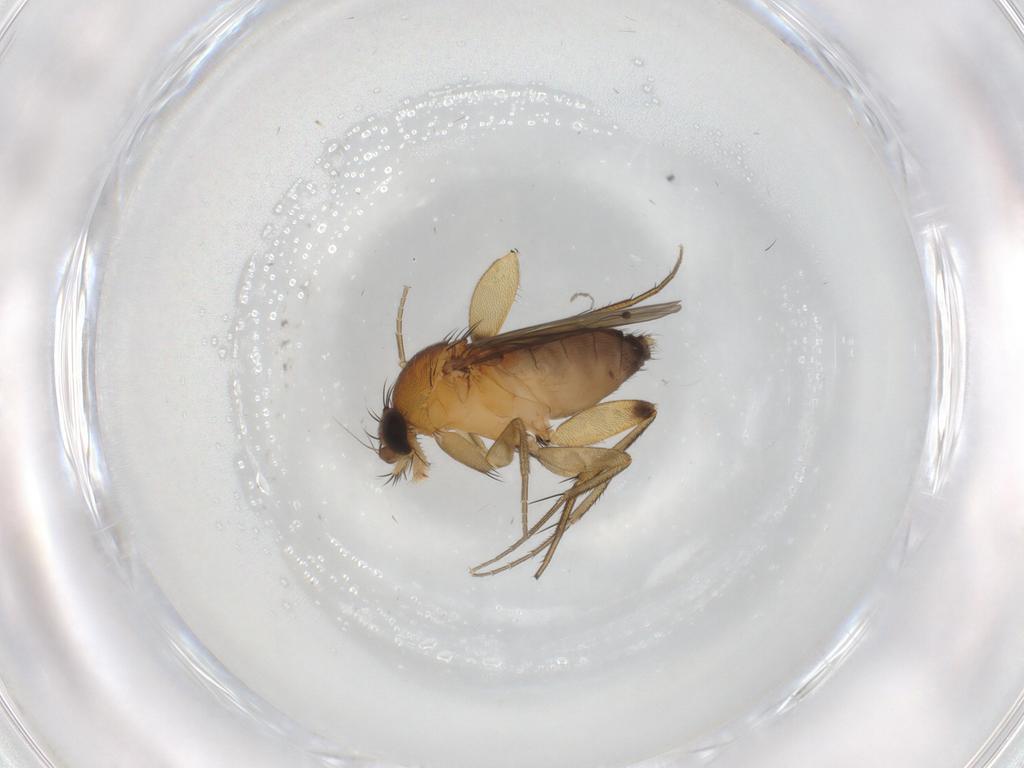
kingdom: Animalia
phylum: Arthropoda
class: Insecta
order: Diptera
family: Phoridae
